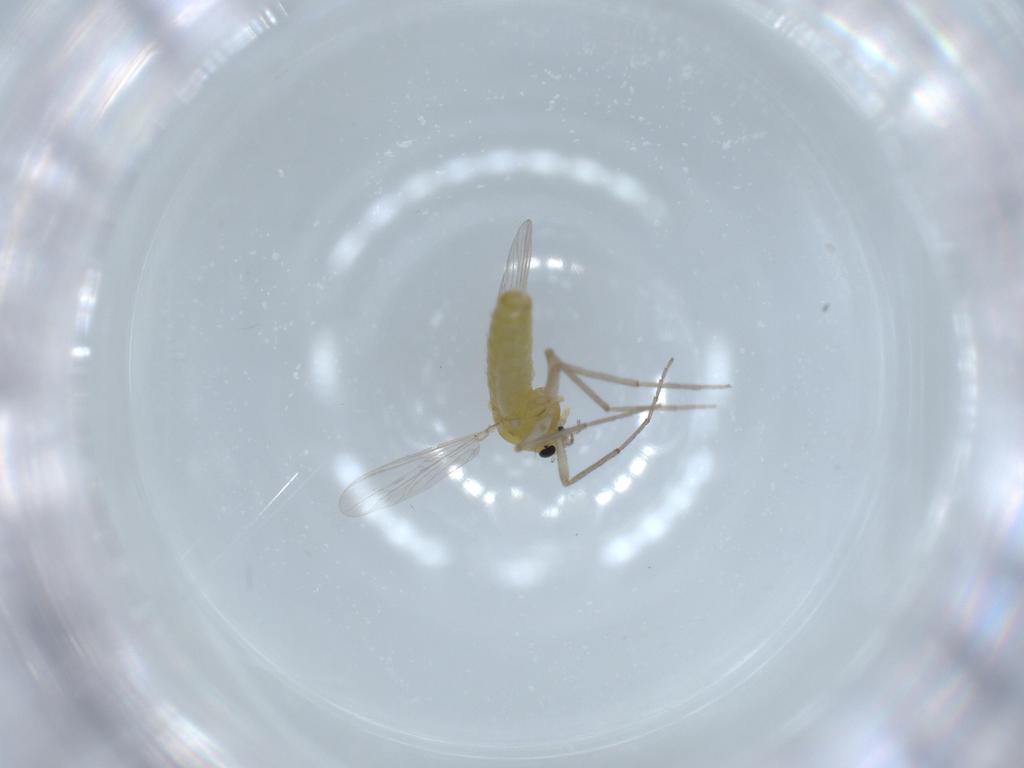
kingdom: Animalia
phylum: Arthropoda
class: Insecta
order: Diptera
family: Chironomidae
